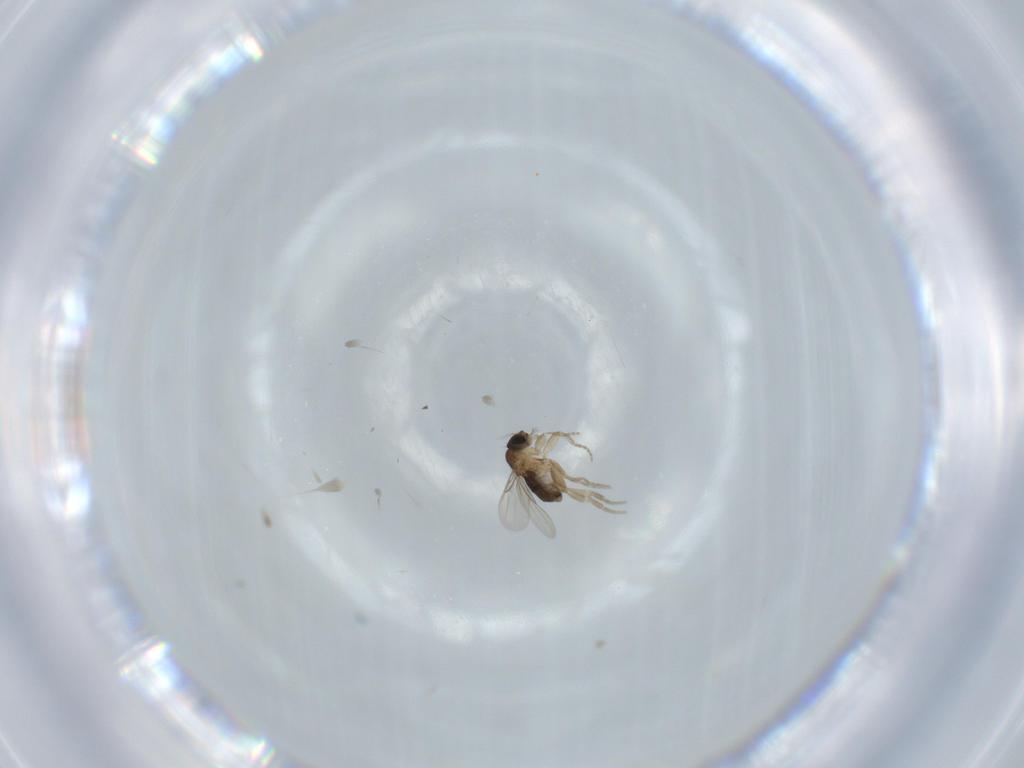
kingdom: Animalia
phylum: Arthropoda
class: Insecta
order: Diptera
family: Phoridae
